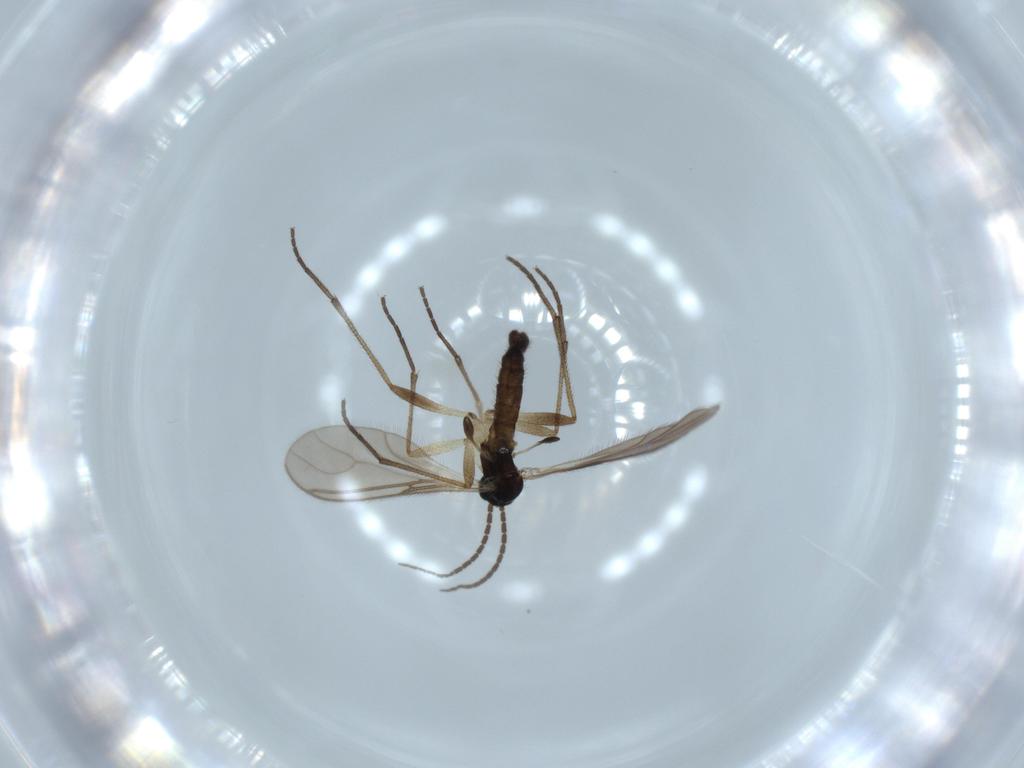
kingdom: Animalia
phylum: Arthropoda
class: Insecta
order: Diptera
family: Sciaridae
